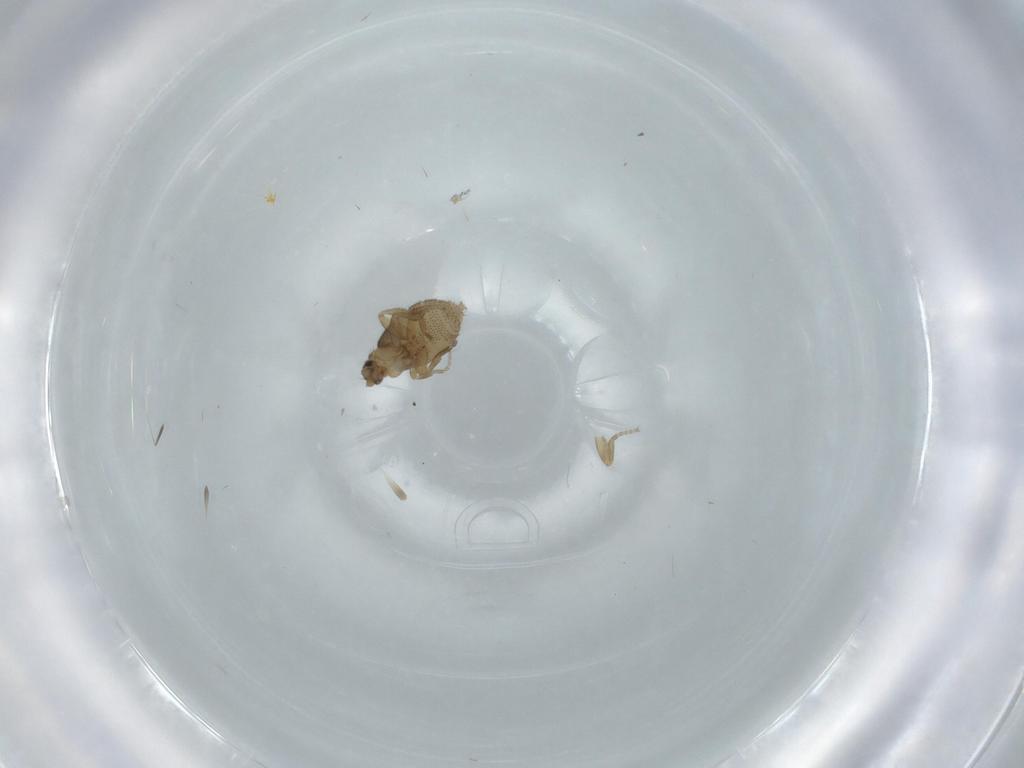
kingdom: Animalia
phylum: Arthropoda
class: Insecta
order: Diptera
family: Phoridae
